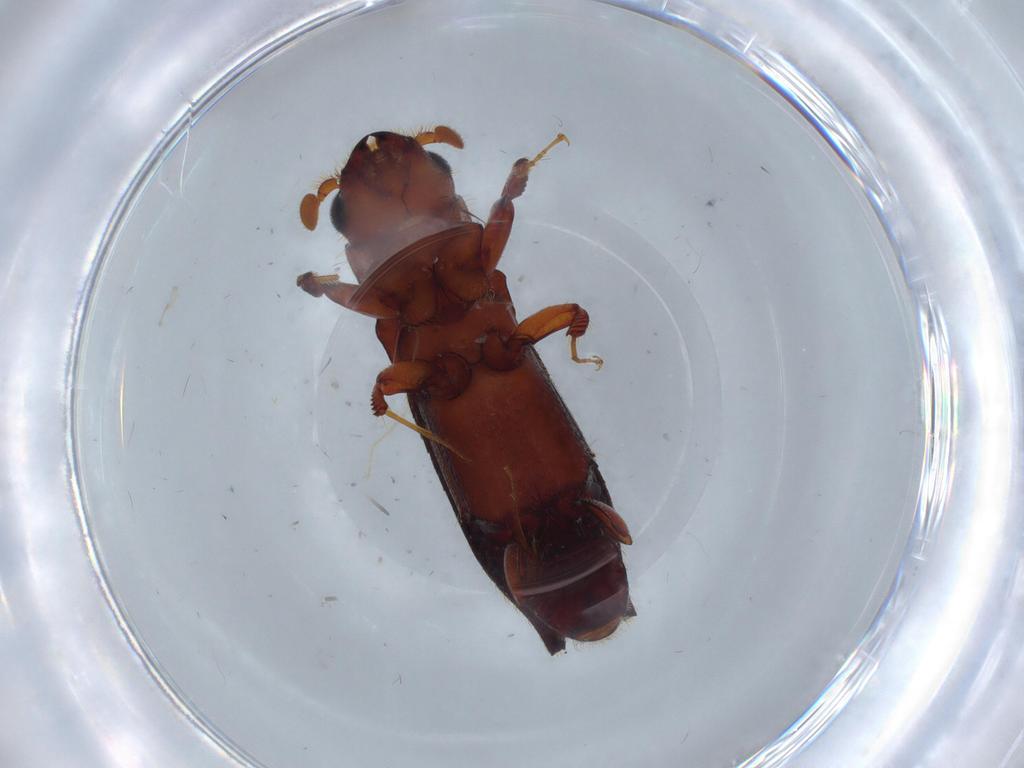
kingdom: Animalia
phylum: Arthropoda
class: Insecta
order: Coleoptera
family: Curculionidae
